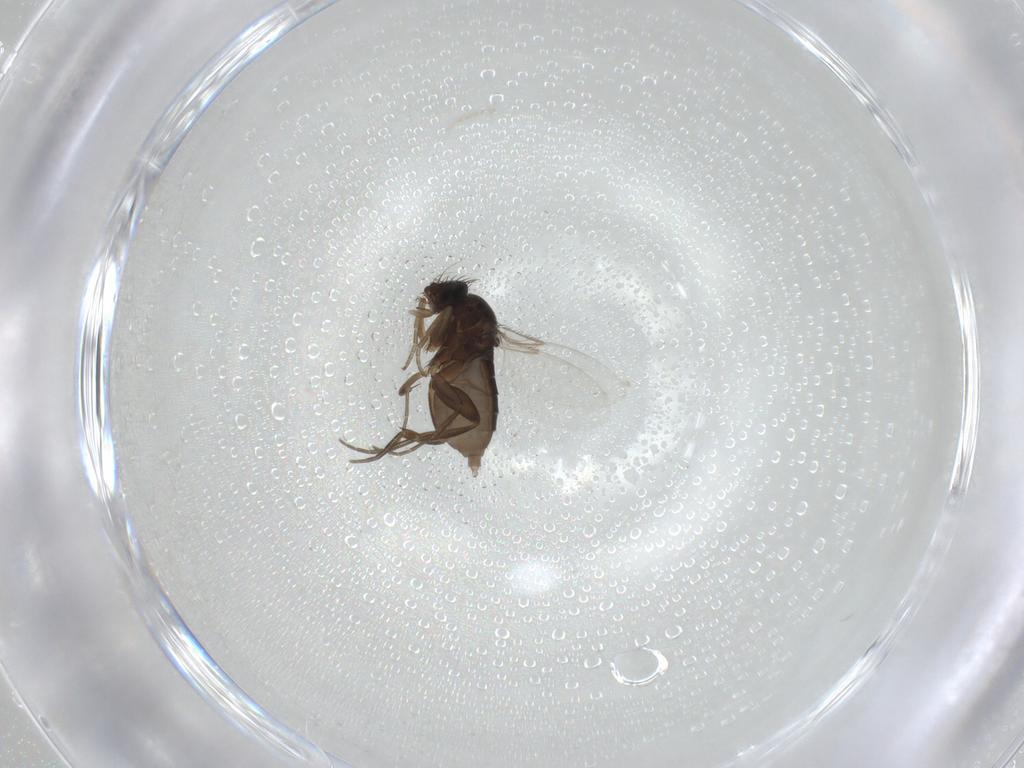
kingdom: Animalia
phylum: Arthropoda
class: Insecta
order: Diptera
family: Phoridae
